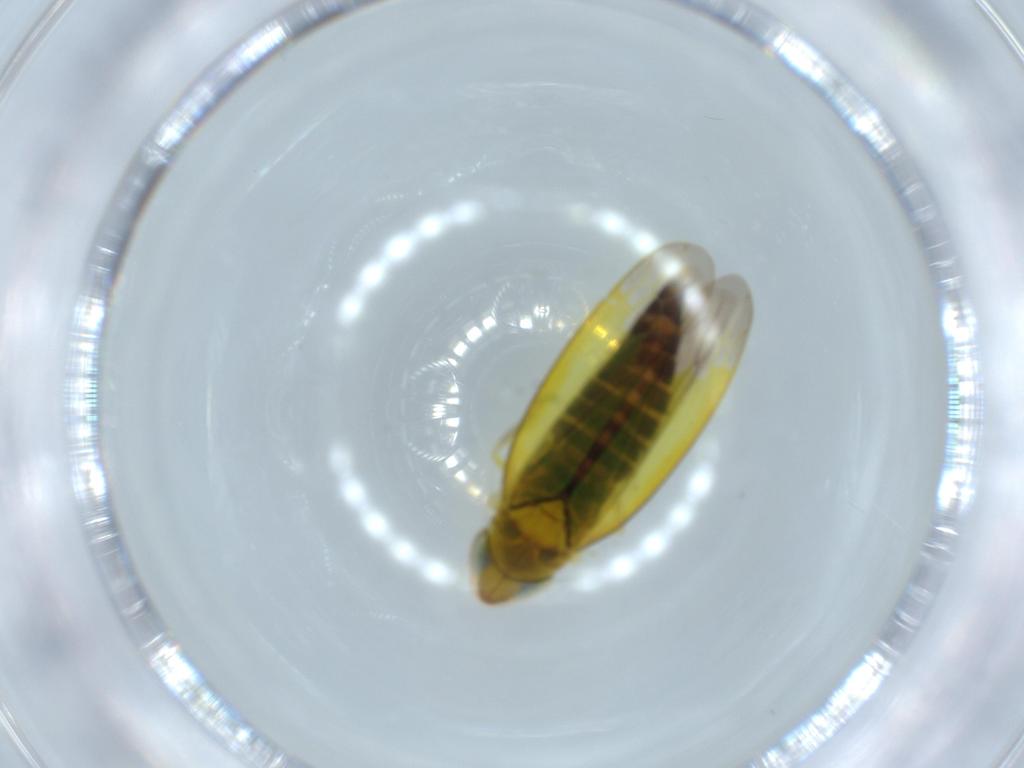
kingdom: Animalia
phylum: Arthropoda
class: Insecta
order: Hemiptera
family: Cicadellidae
